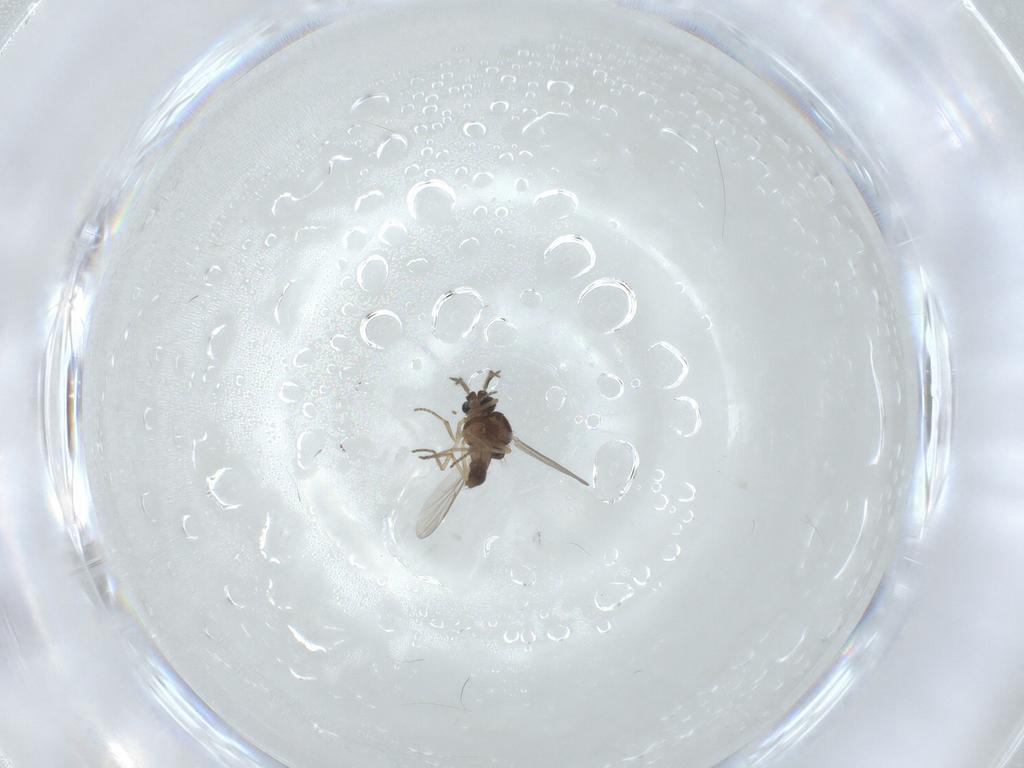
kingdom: Animalia
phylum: Arthropoda
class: Insecta
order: Diptera
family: Ceratopogonidae
